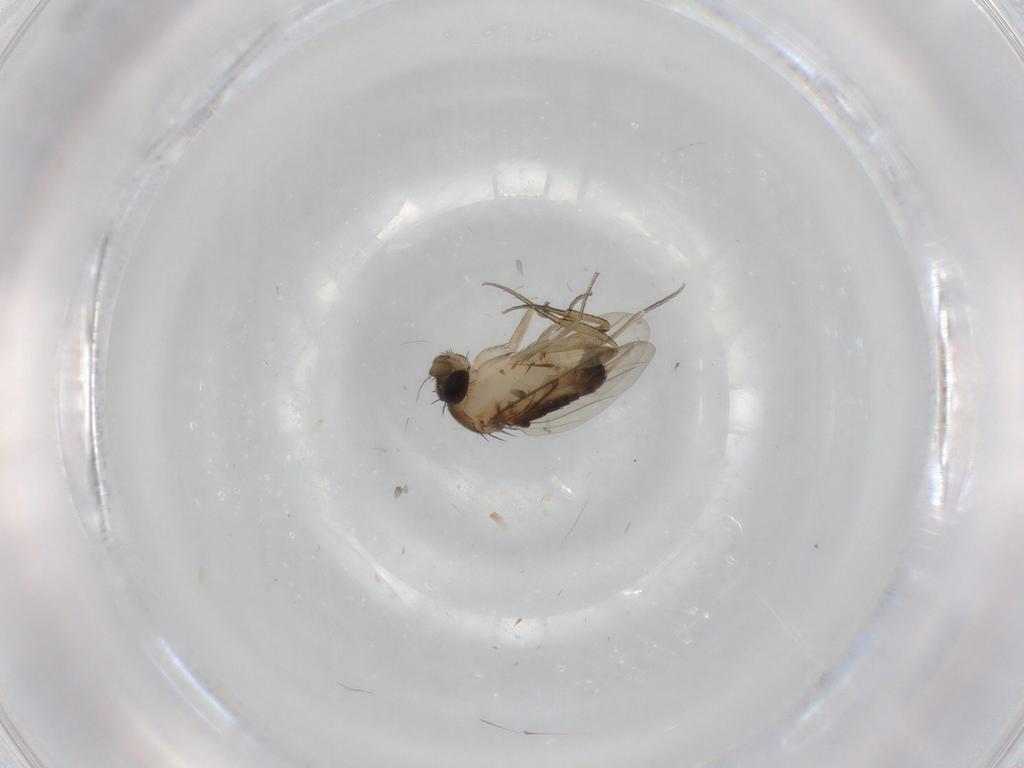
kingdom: Animalia
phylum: Arthropoda
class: Insecta
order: Diptera
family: Phoridae
